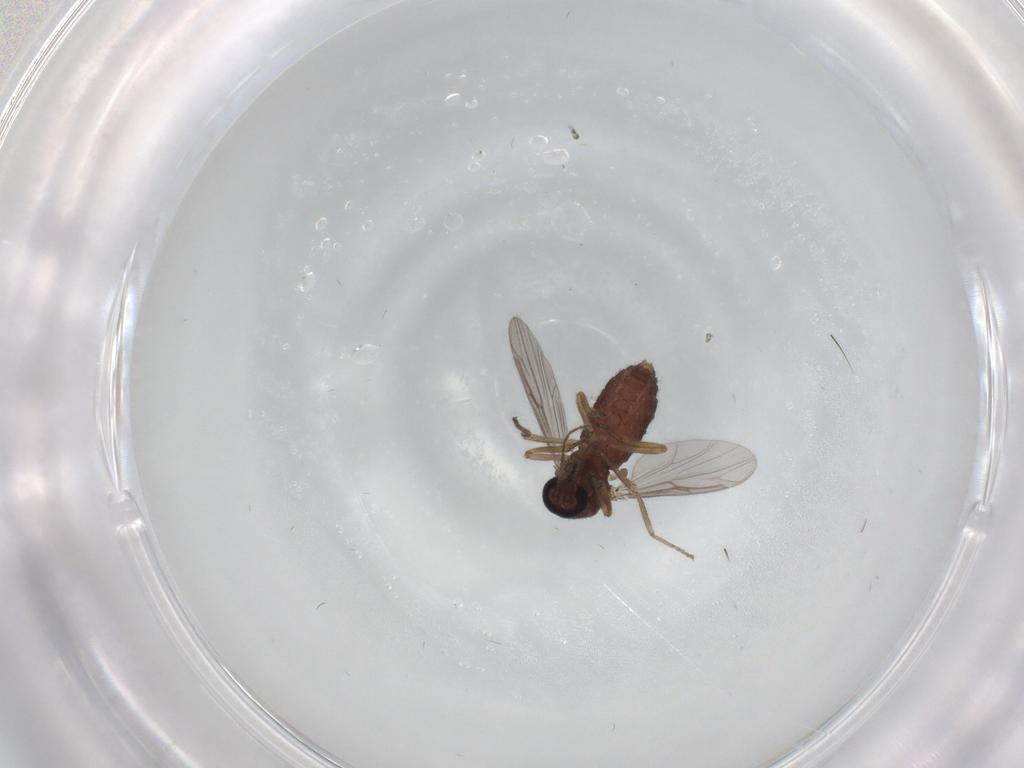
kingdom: Animalia
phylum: Arthropoda
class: Insecta
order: Diptera
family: Ceratopogonidae
